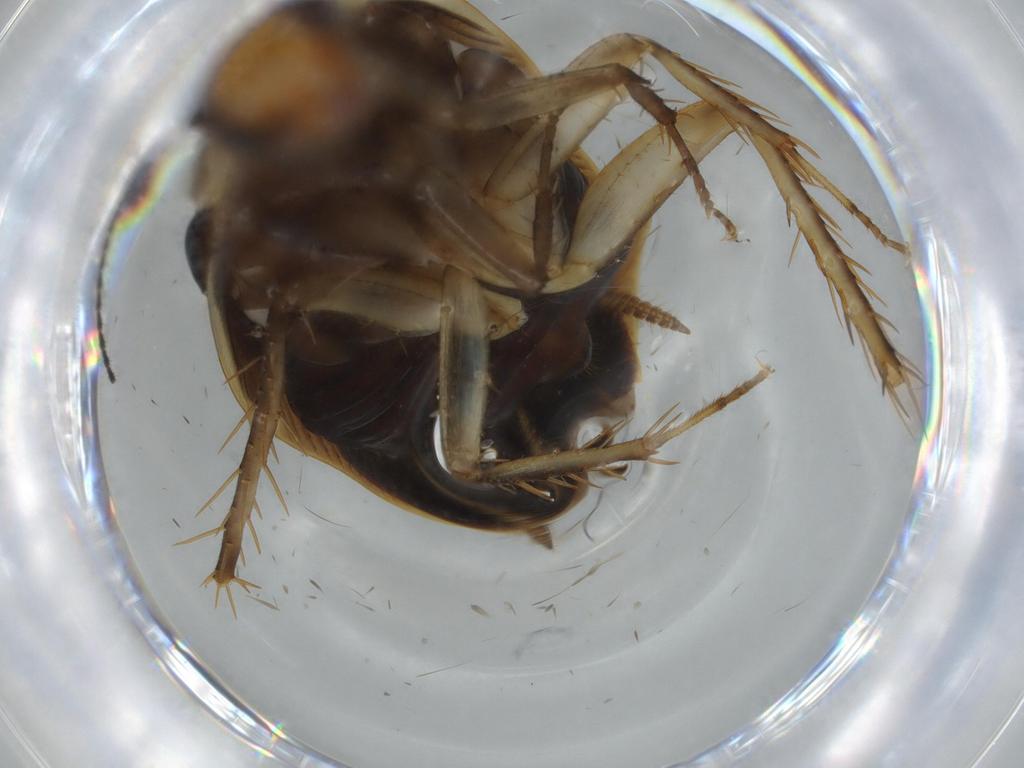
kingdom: Animalia
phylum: Arthropoda
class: Insecta
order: Blattodea
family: Ectobiidae
